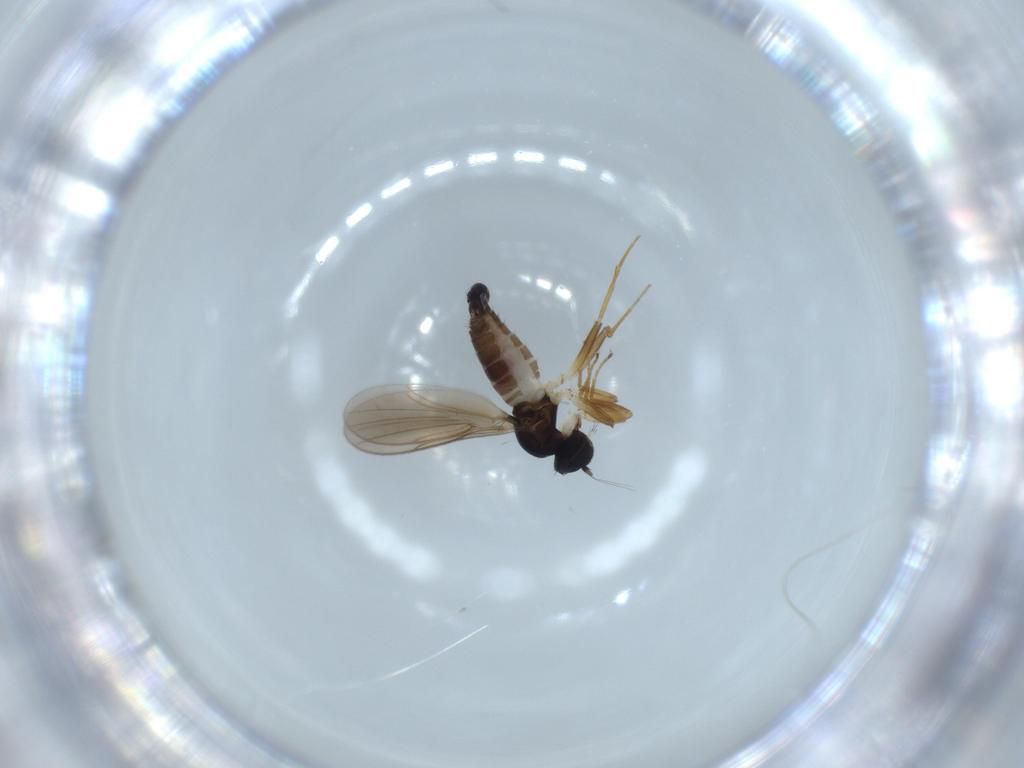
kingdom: Animalia
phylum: Arthropoda
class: Insecta
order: Diptera
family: Hybotidae
